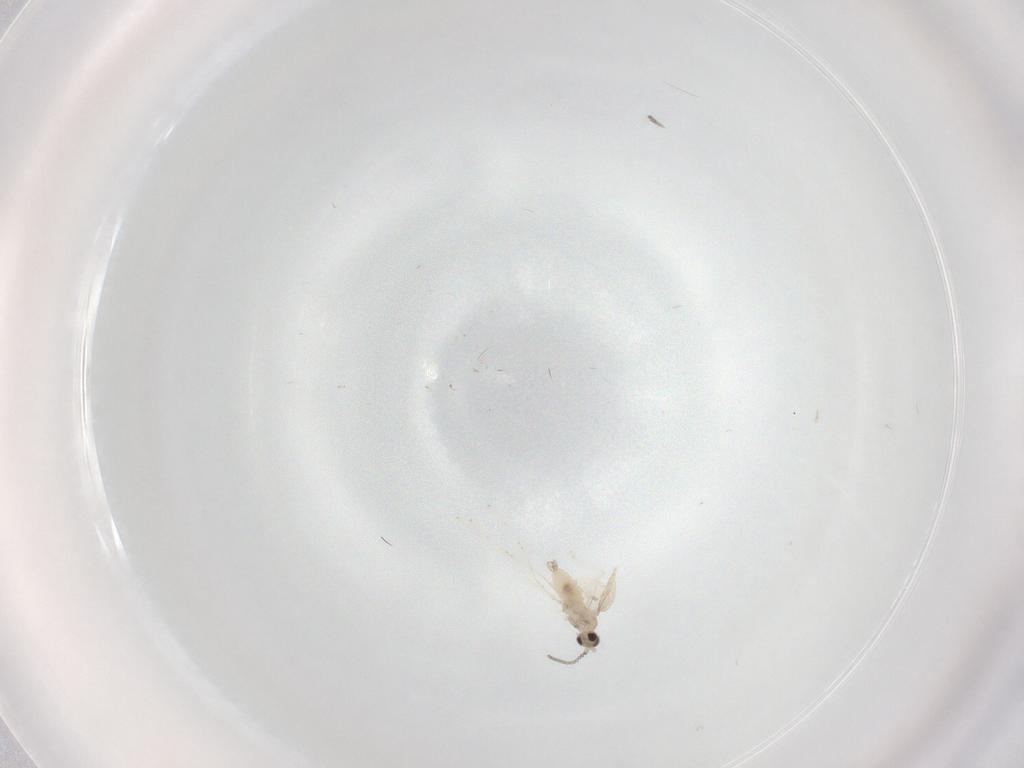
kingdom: Animalia
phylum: Arthropoda
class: Insecta
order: Diptera
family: Cecidomyiidae
